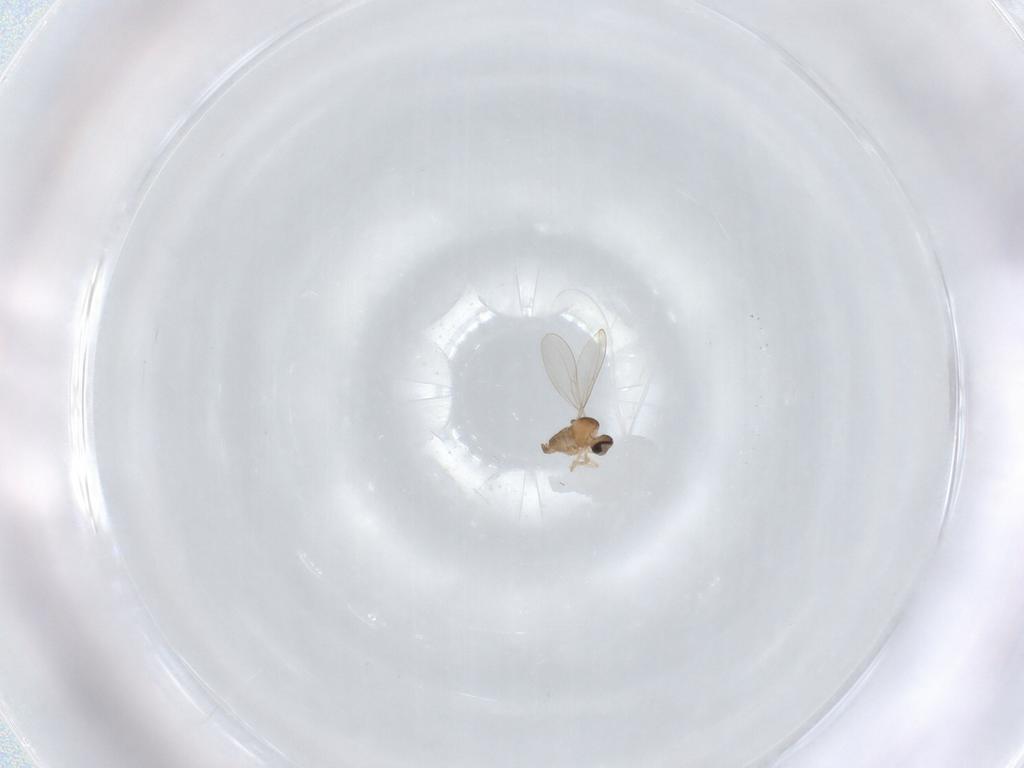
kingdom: Animalia
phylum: Arthropoda
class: Insecta
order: Diptera
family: Cecidomyiidae
